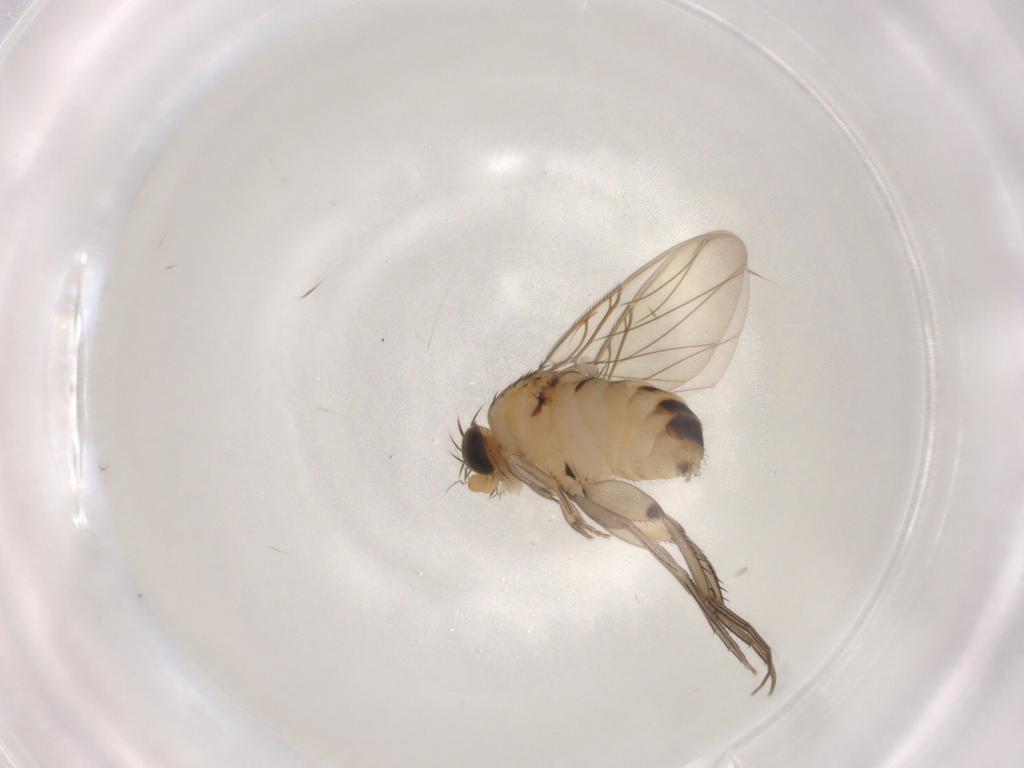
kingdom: Animalia
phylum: Arthropoda
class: Insecta
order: Diptera
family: Phoridae
